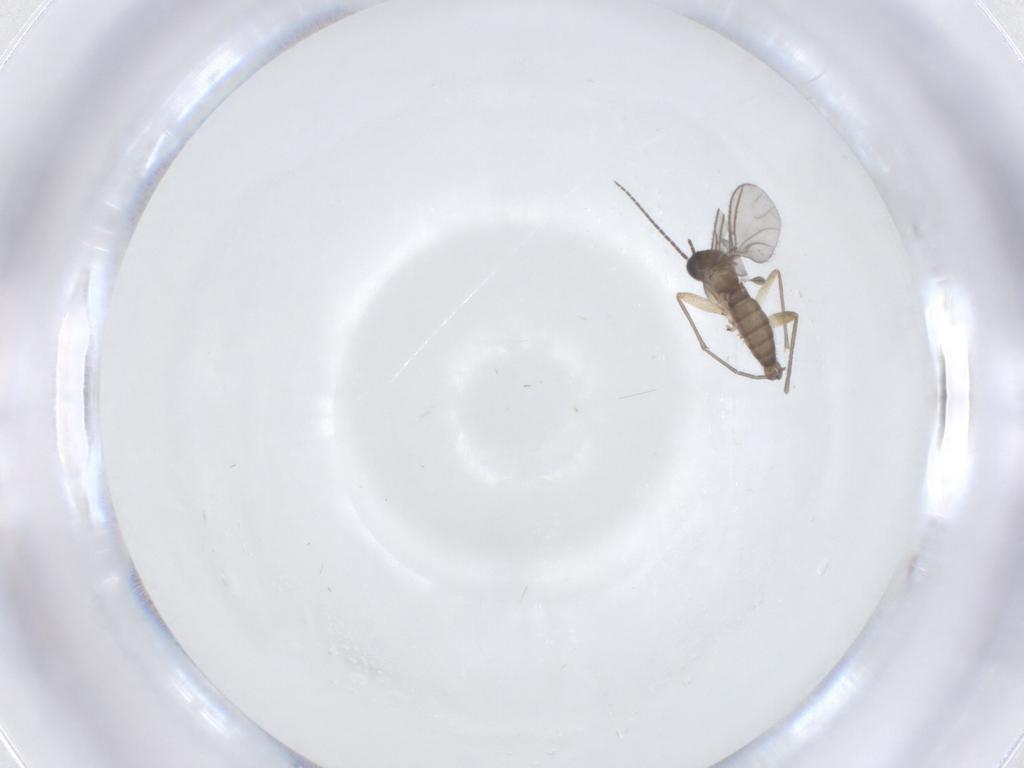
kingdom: Animalia
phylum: Arthropoda
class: Insecta
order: Diptera
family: Sciaridae
